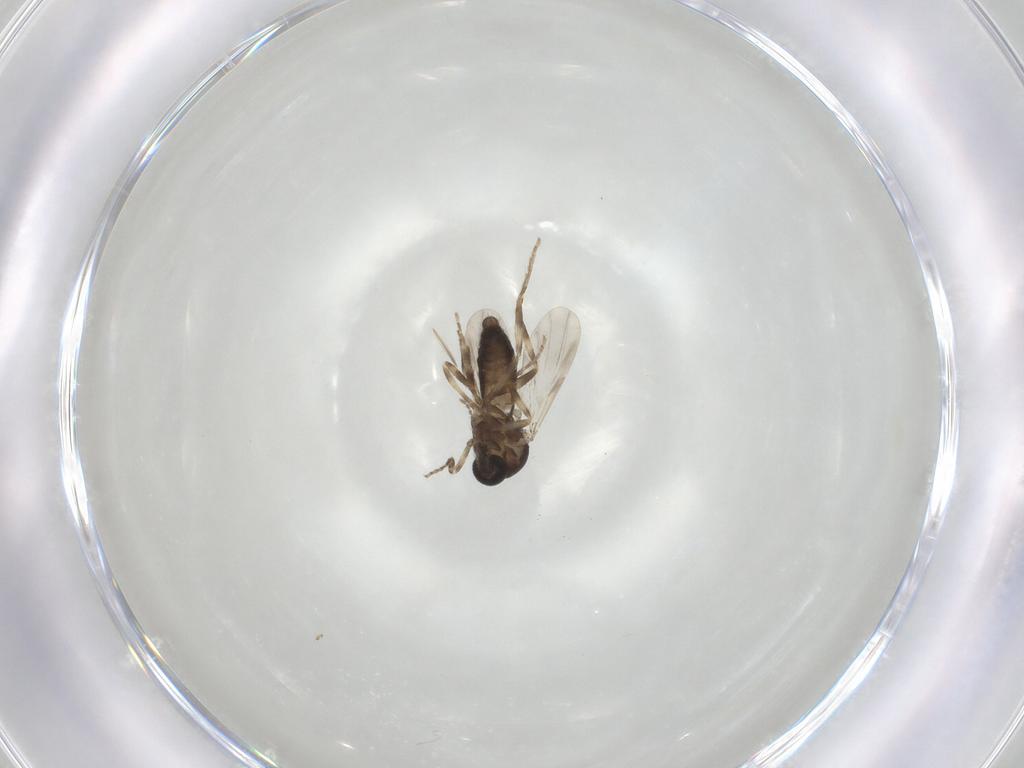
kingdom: Animalia
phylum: Arthropoda
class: Insecta
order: Diptera
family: Ceratopogonidae
